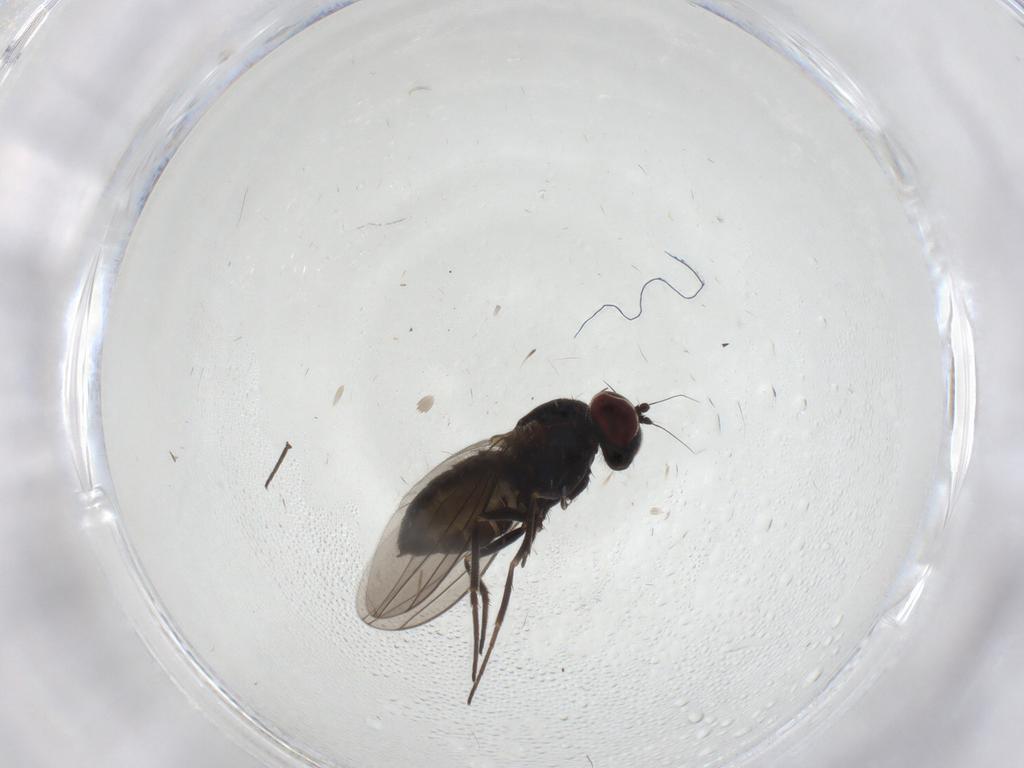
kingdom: Animalia
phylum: Arthropoda
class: Insecta
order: Diptera
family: Dolichopodidae
